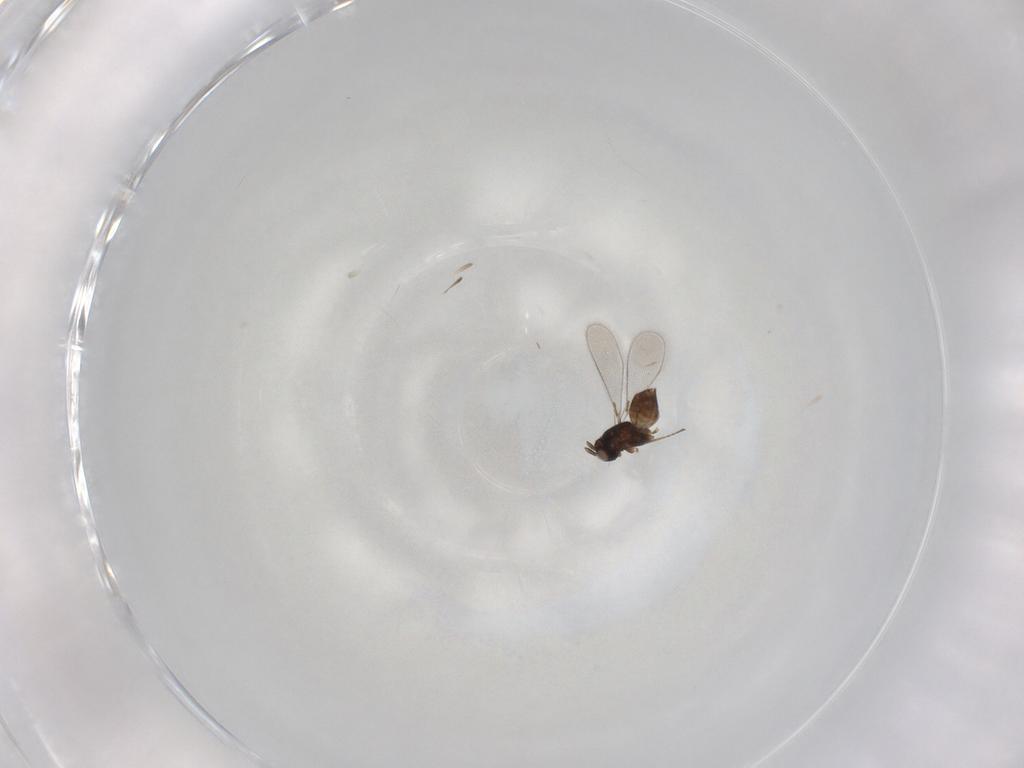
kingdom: Animalia
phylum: Arthropoda
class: Insecta
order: Hymenoptera
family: Mymaridae
